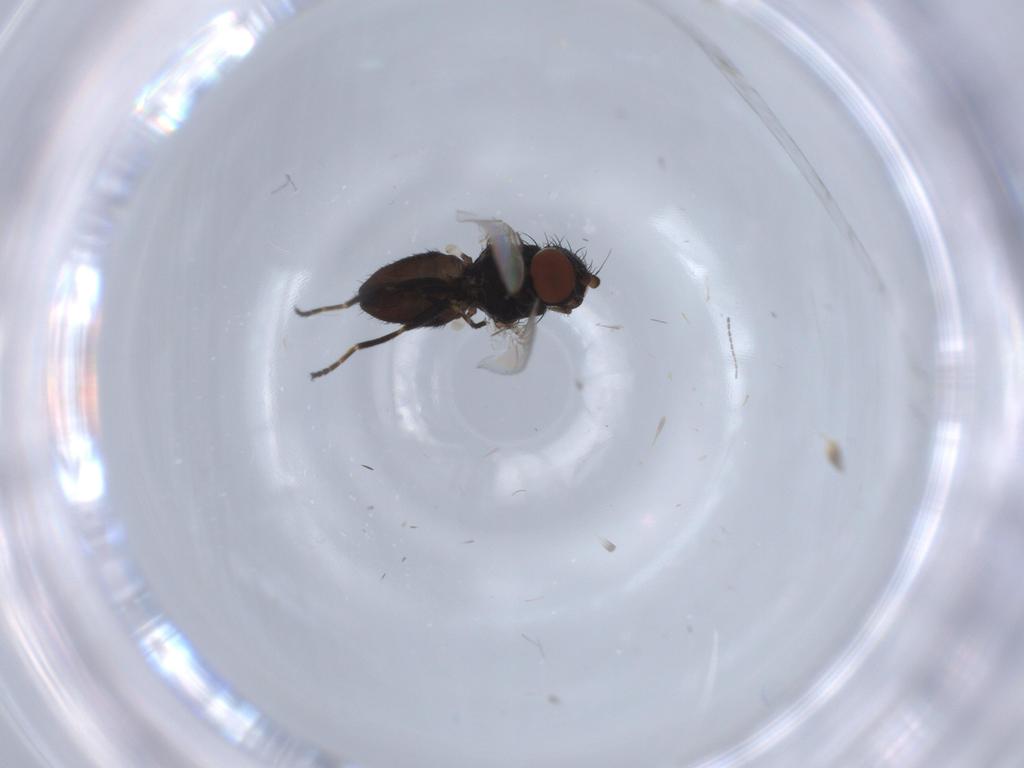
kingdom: Animalia
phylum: Arthropoda
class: Insecta
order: Diptera
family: Milichiidae
